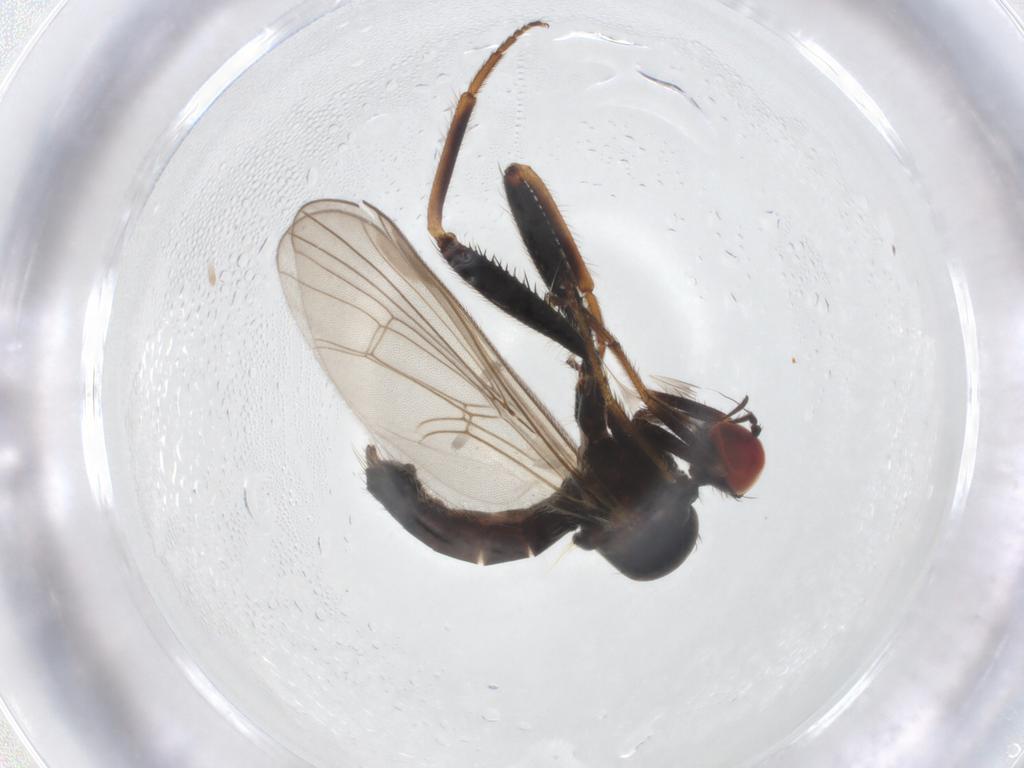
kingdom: Animalia
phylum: Arthropoda
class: Insecta
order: Diptera
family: Hybotidae
